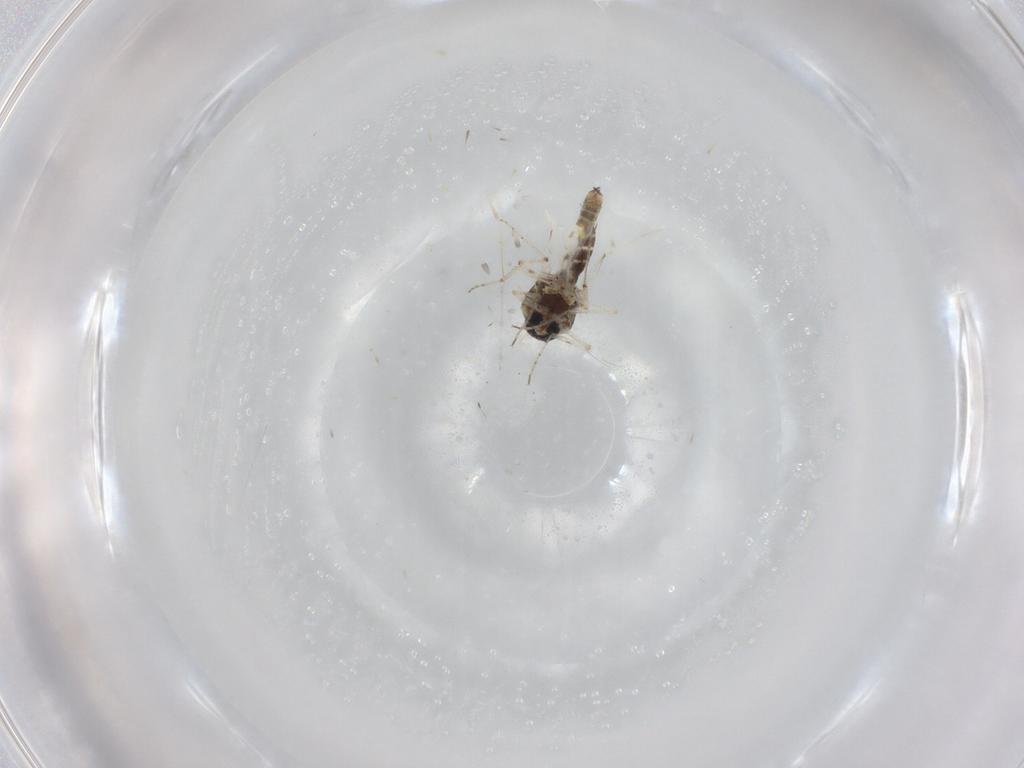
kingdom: Animalia
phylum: Arthropoda
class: Insecta
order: Diptera
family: Ceratopogonidae
